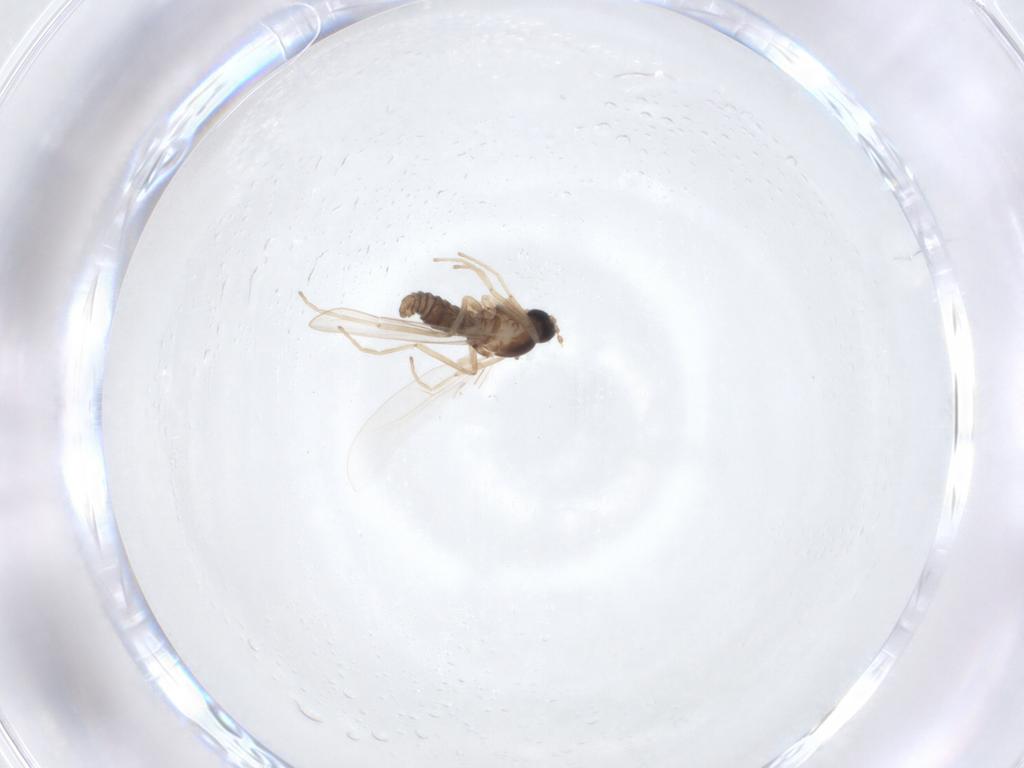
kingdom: Animalia
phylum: Arthropoda
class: Insecta
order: Diptera
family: Cecidomyiidae
